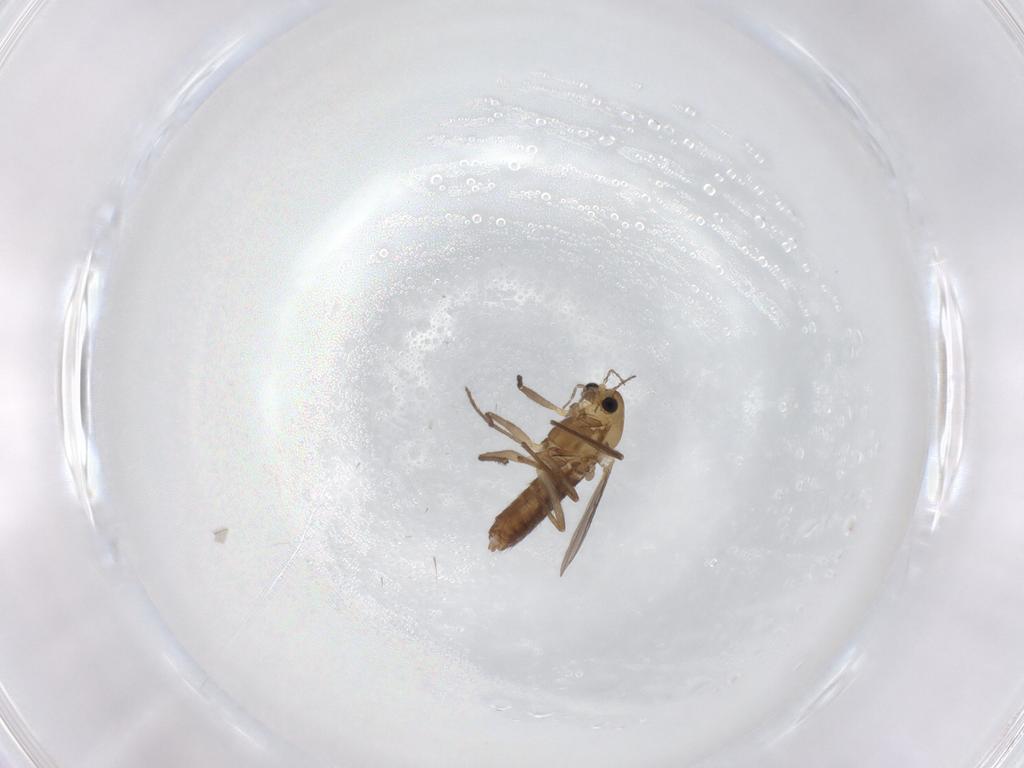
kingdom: Animalia
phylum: Arthropoda
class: Insecta
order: Diptera
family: Chironomidae
